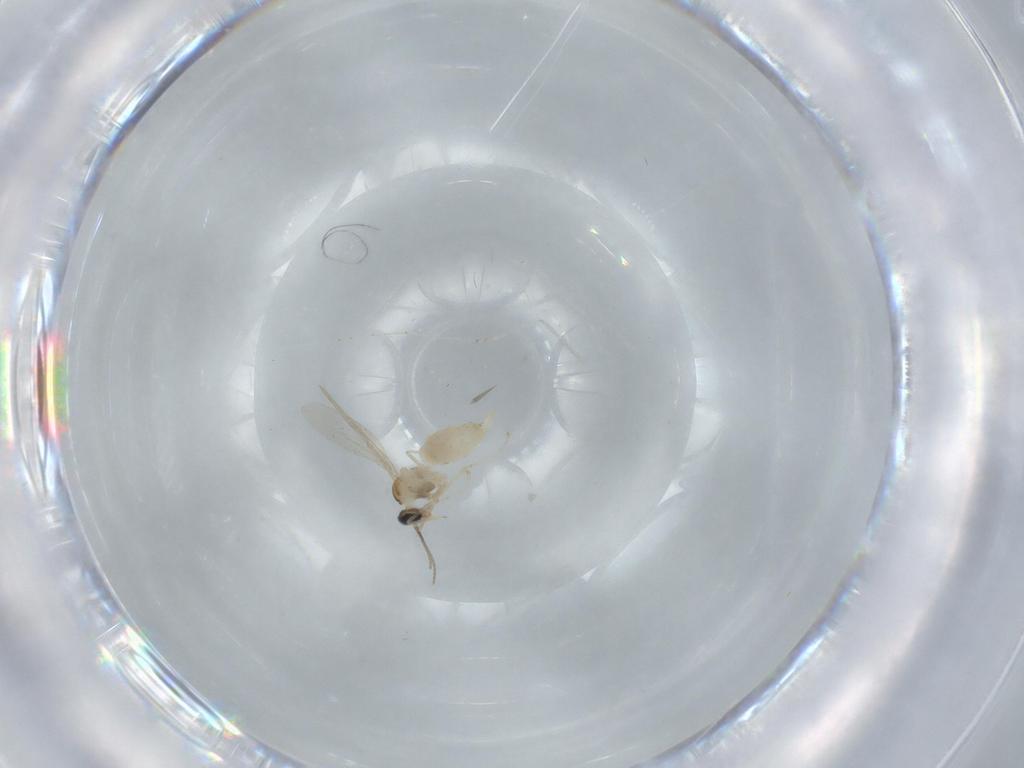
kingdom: Animalia
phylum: Arthropoda
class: Insecta
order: Diptera
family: Cecidomyiidae
